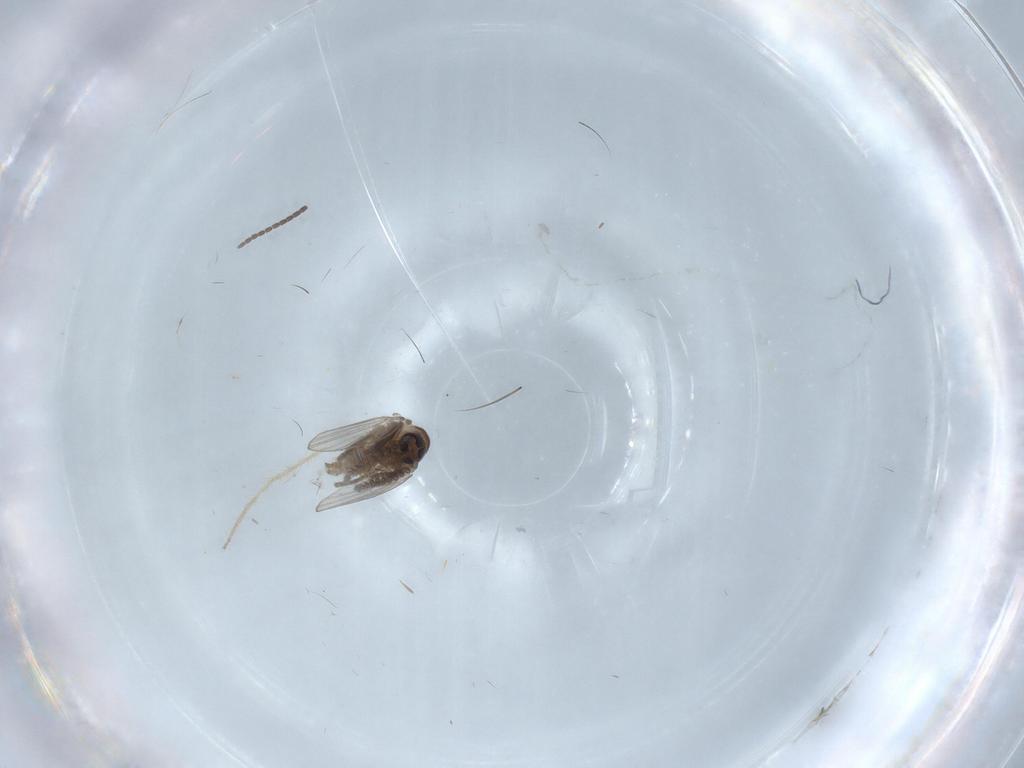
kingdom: Animalia
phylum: Arthropoda
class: Insecta
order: Diptera
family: Psychodidae
